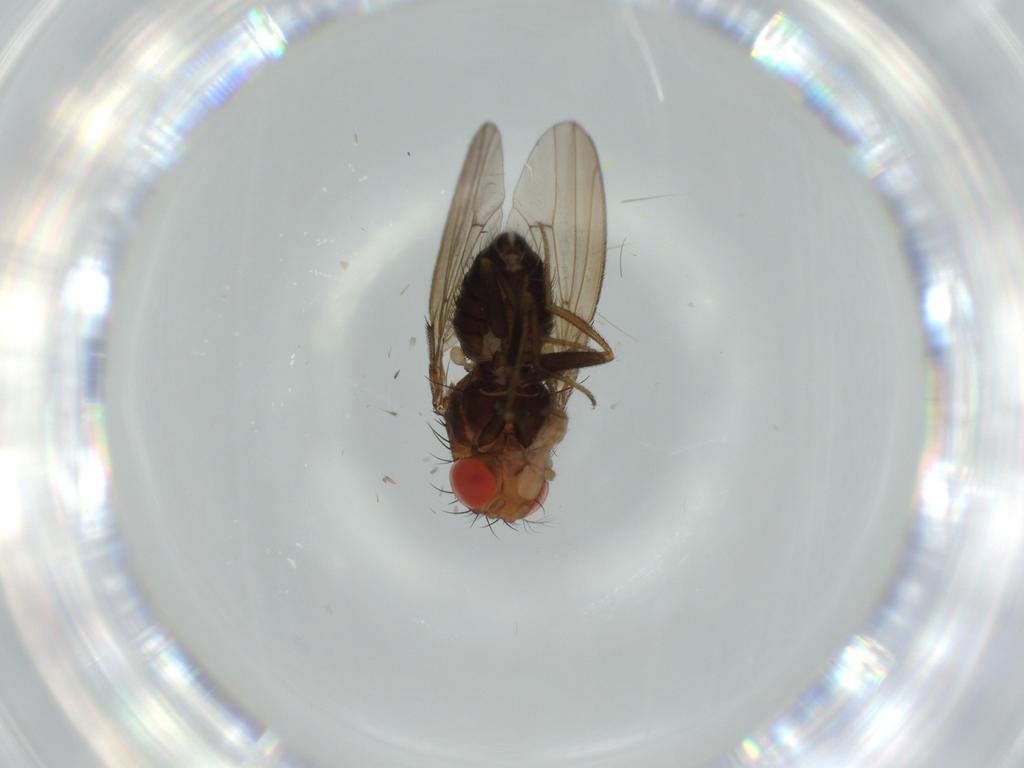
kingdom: Animalia
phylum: Arthropoda
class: Insecta
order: Diptera
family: Drosophilidae
